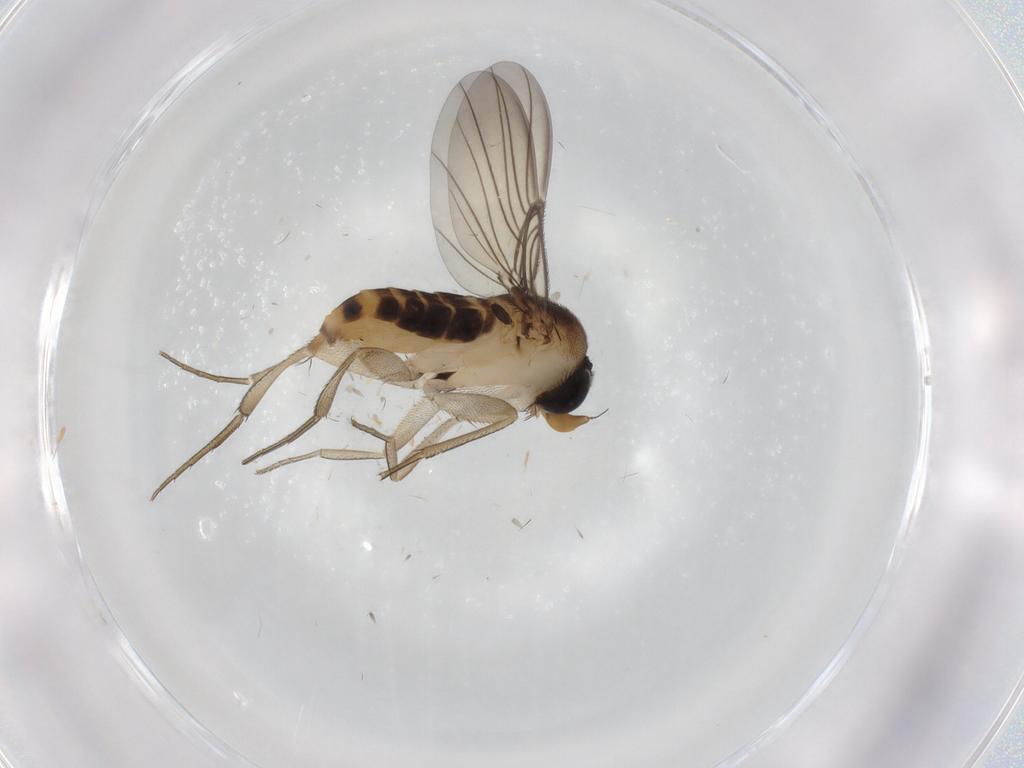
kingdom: Animalia
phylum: Arthropoda
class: Insecta
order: Diptera
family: Phoridae
